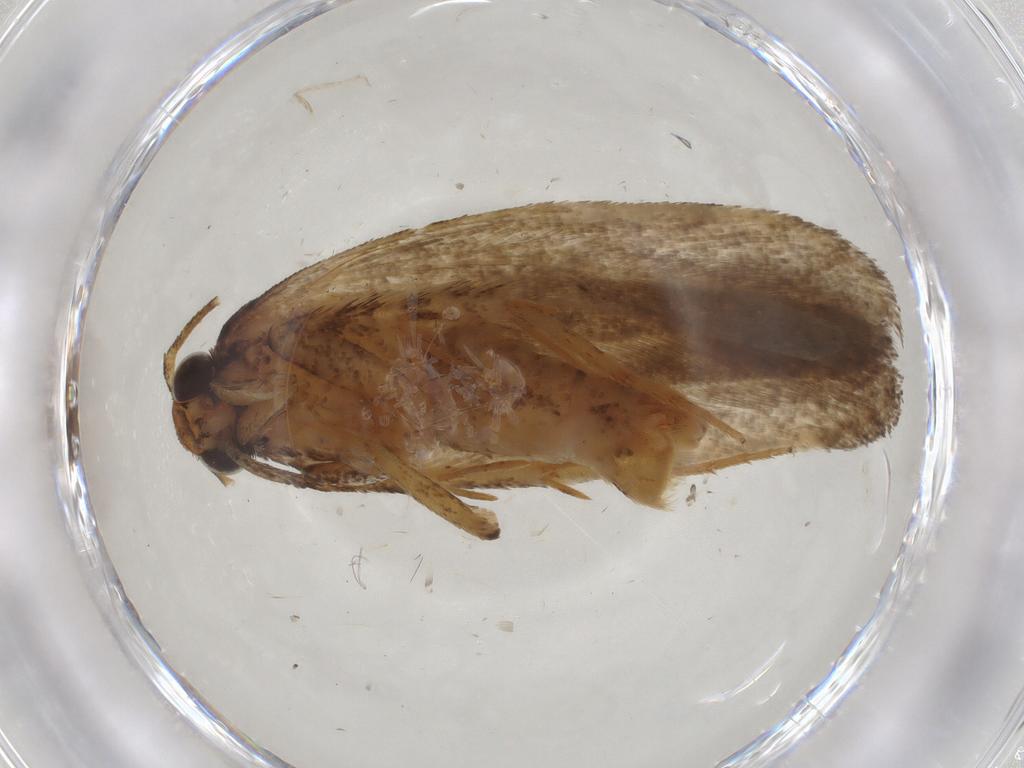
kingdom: Animalia
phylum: Arthropoda
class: Insecta
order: Lepidoptera
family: Gelechiidae
